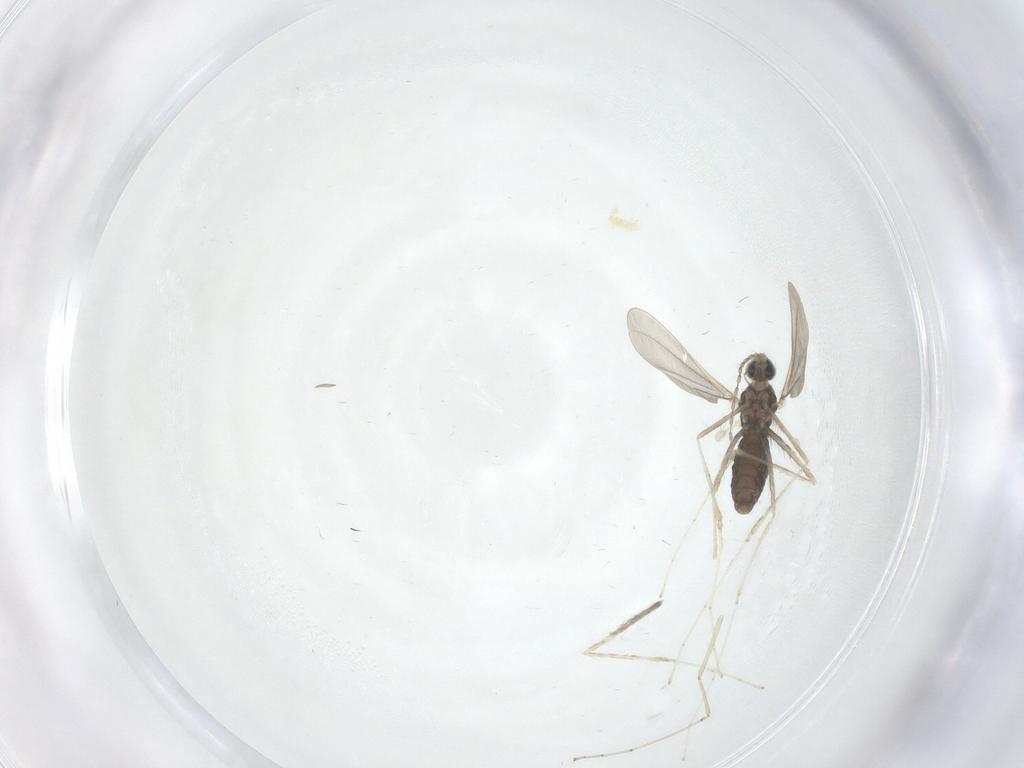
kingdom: Animalia
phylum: Arthropoda
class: Insecta
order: Diptera
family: Cecidomyiidae
